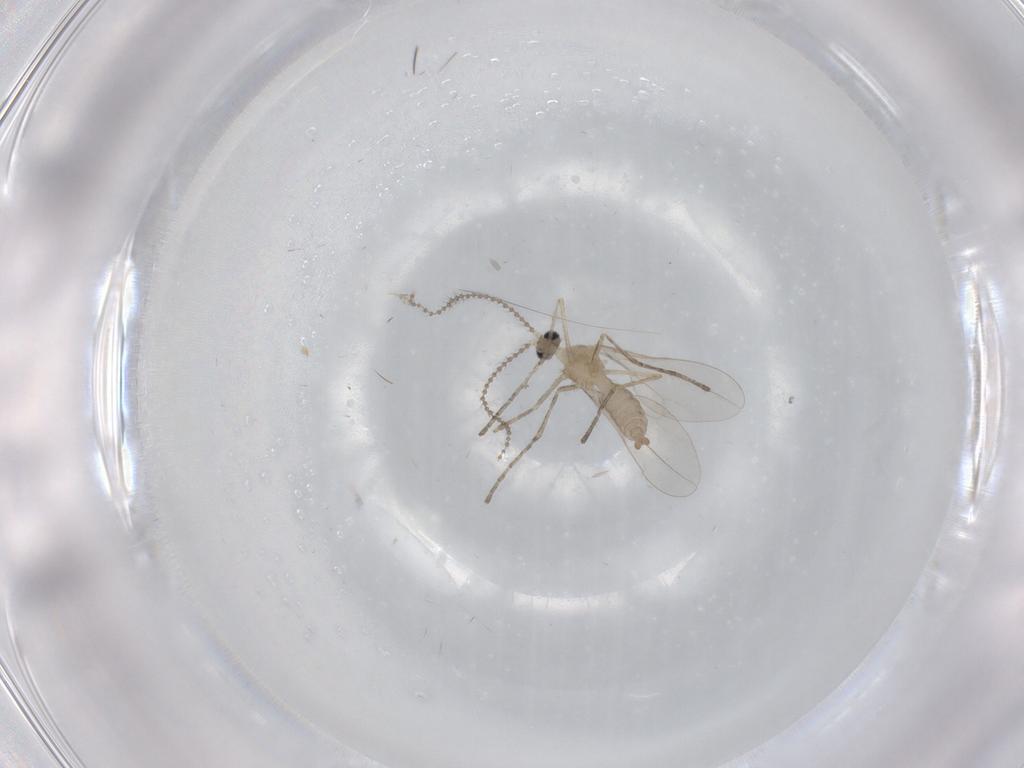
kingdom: Animalia
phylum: Arthropoda
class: Insecta
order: Diptera
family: Cecidomyiidae
